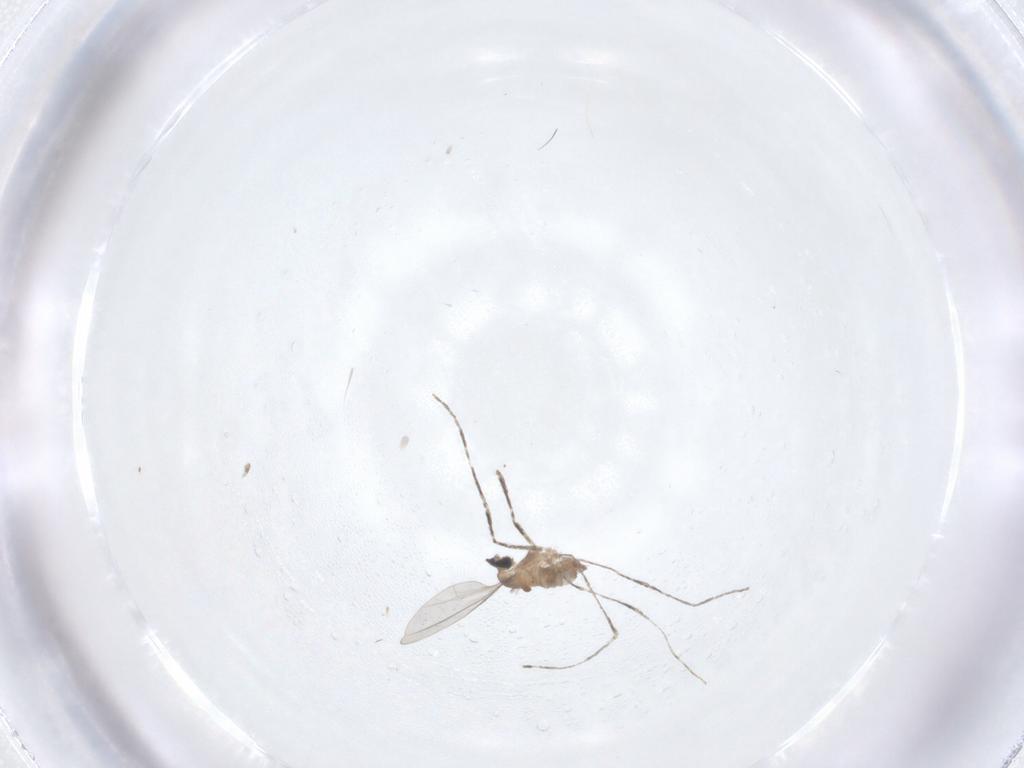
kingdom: Animalia
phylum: Arthropoda
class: Insecta
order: Diptera
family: Cecidomyiidae
